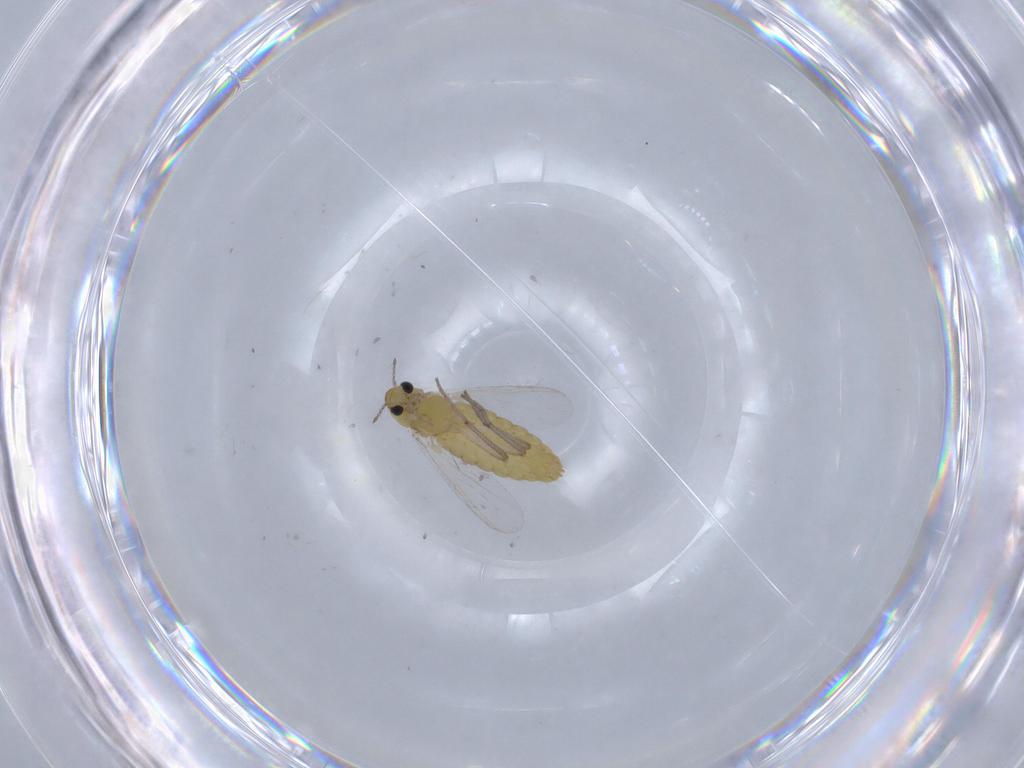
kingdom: Animalia
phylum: Arthropoda
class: Insecta
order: Diptera
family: Chironomidae
